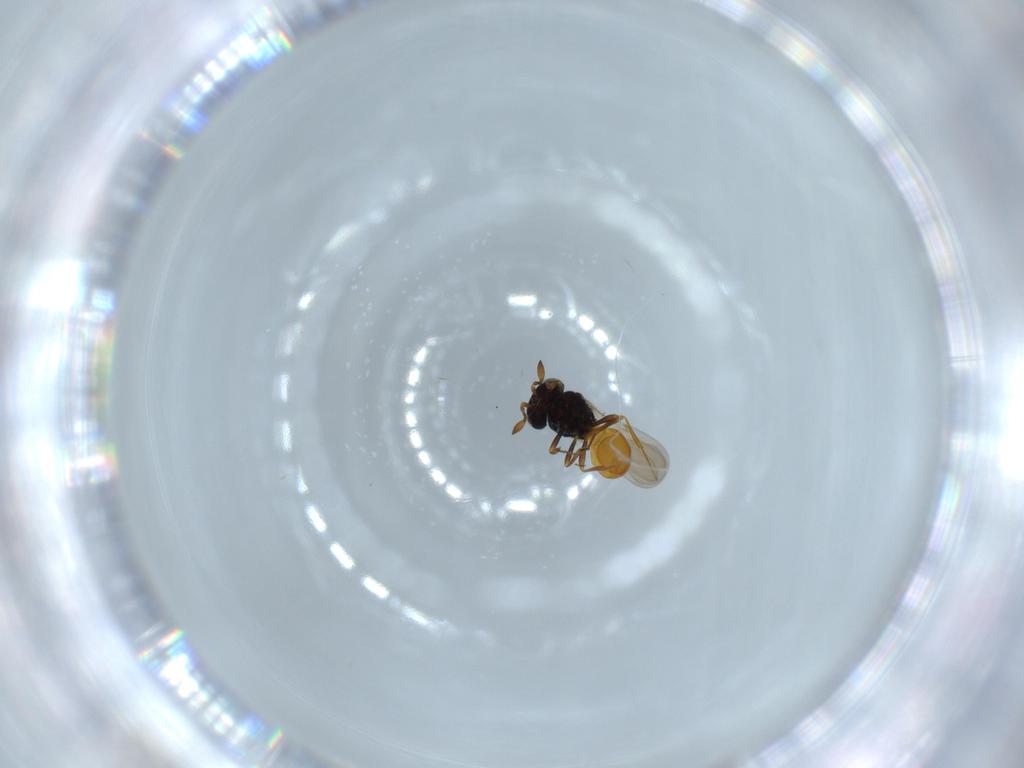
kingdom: Animalia
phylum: Arthropoda
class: Insecta
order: Hymenoptera
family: Scelionidae
